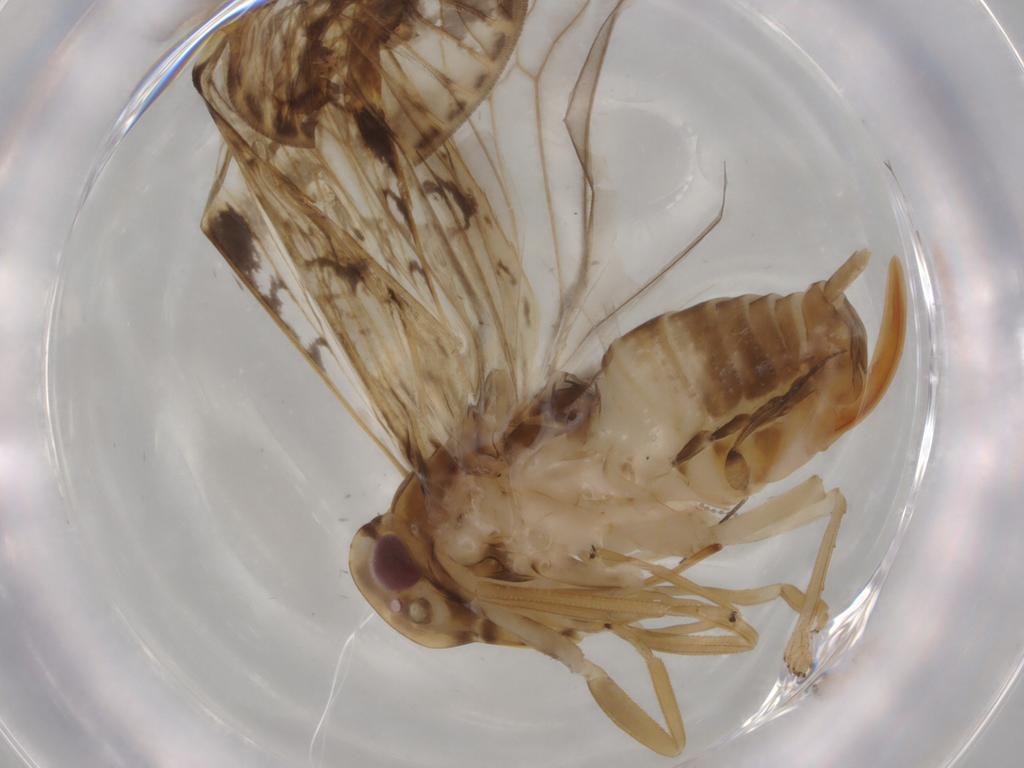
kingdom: Animalia
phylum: Arthropoda
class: Insecta
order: Hemiptera
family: Cixiidae
